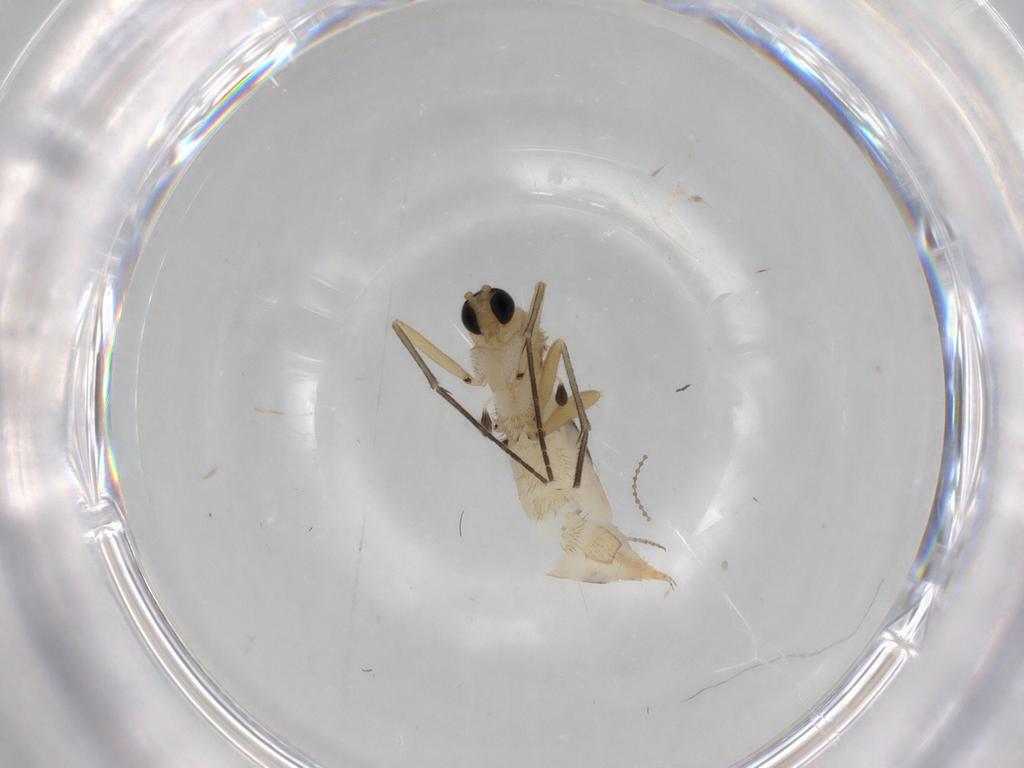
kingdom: Animalia
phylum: Arthropoda
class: Insecta
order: Diptera
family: Sciaridae
